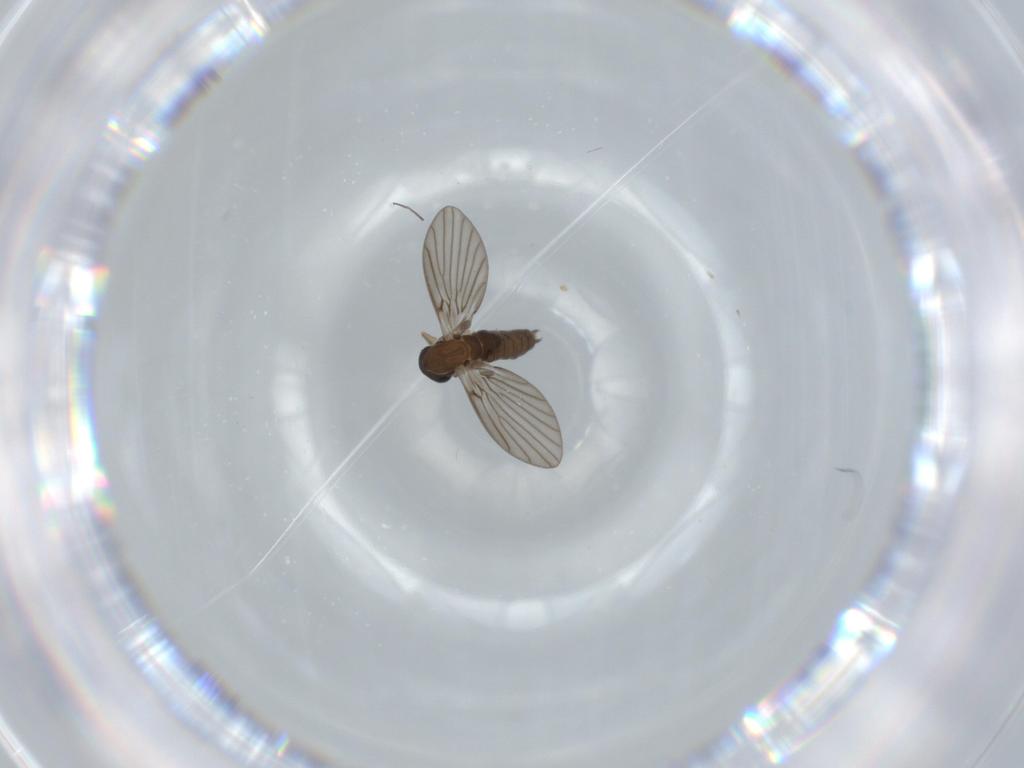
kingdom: Animalia
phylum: Arthropoda
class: Insecta
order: Diptera
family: Psychodidae
